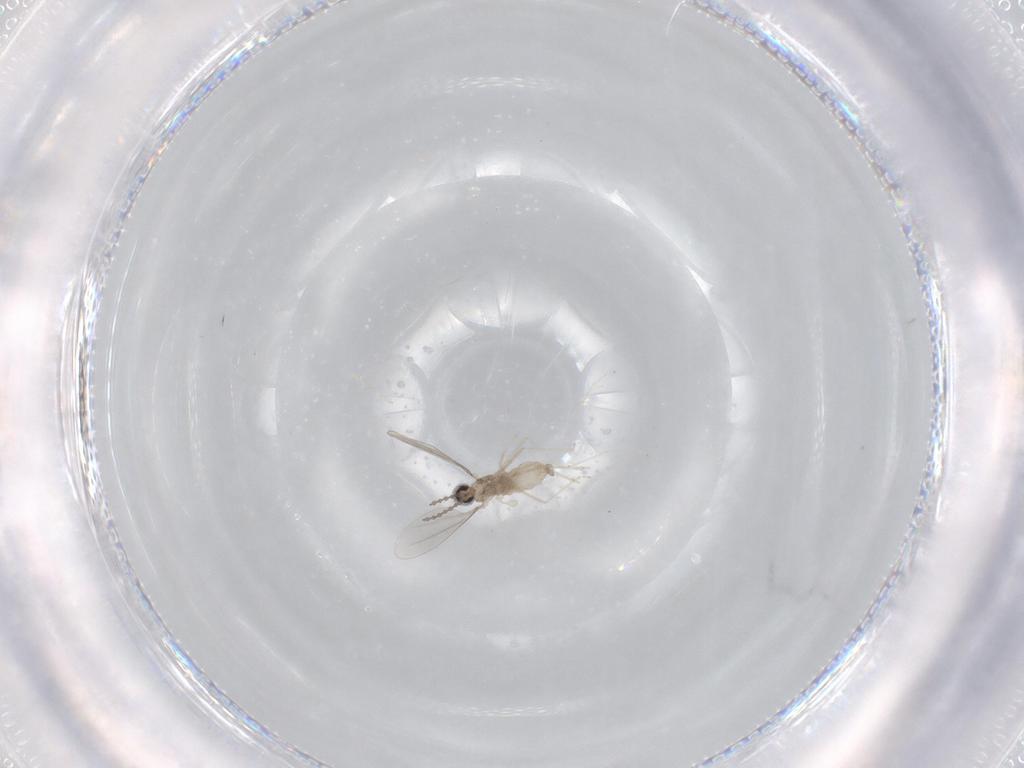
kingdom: Animalia
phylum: Arthropoda
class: Insecta
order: Diptera
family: Cecidomyiidae
